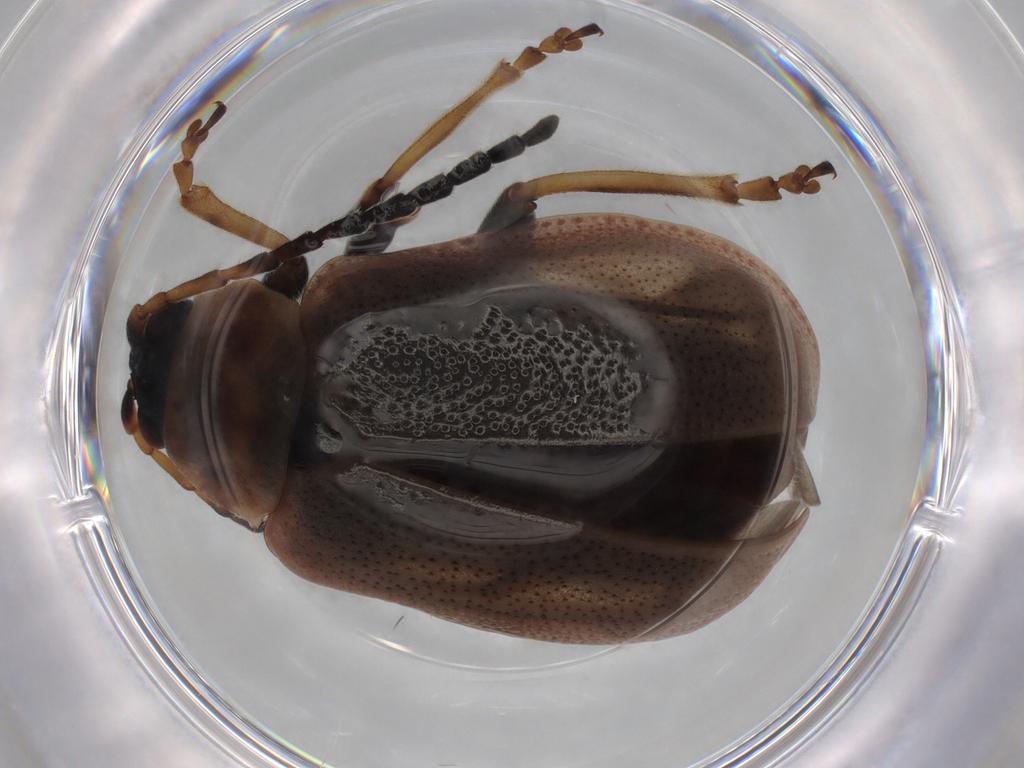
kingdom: Animalia
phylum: Arthropoda
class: Insecta
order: Coleoptera
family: Chrysomelidae
